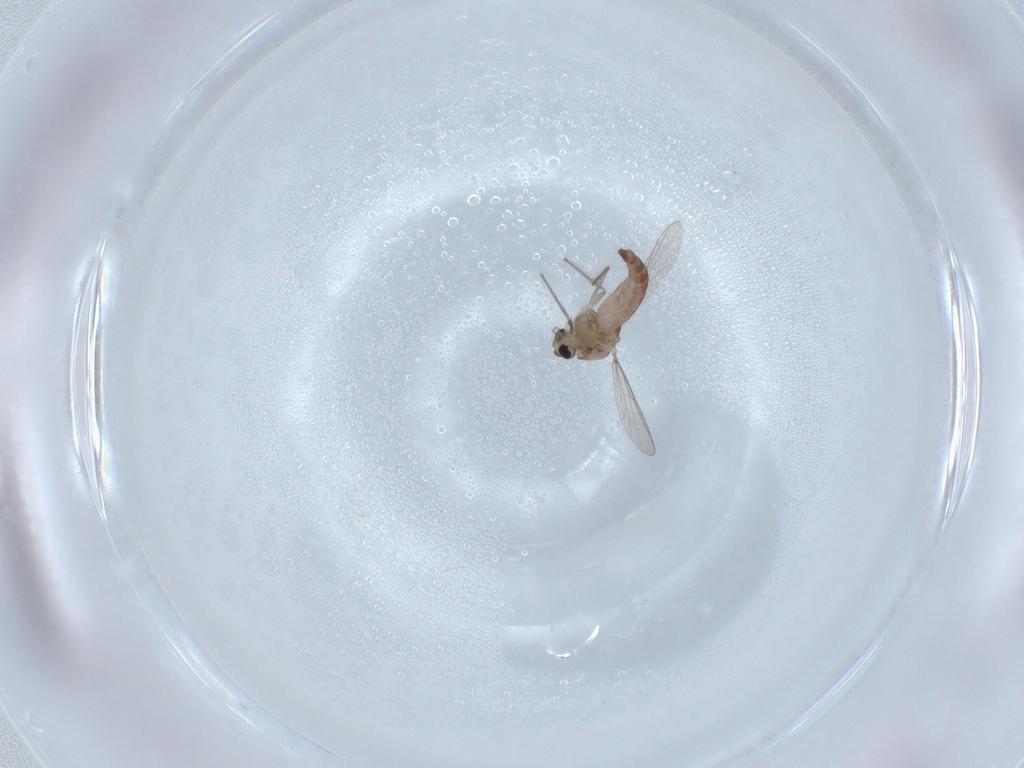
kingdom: Animalia
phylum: Arthropoda
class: Insecta
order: Diptera
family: Chironomidae
